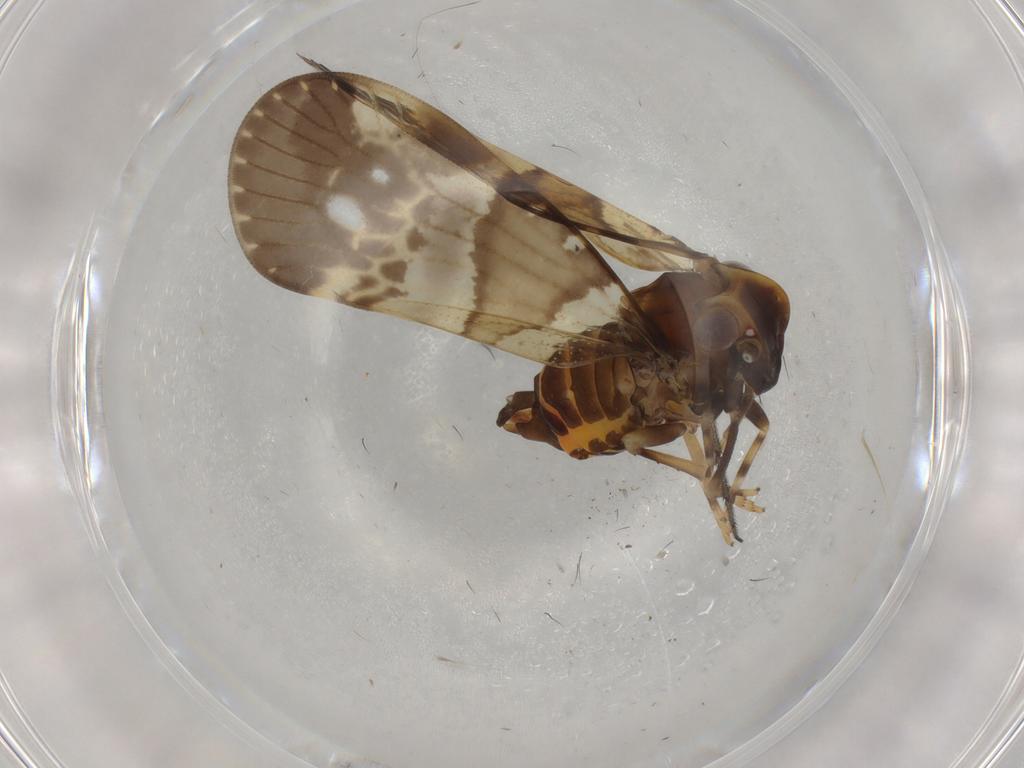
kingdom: Animalia
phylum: Arthropoda
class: Insecta
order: Hemiptera
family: Cixiidae
